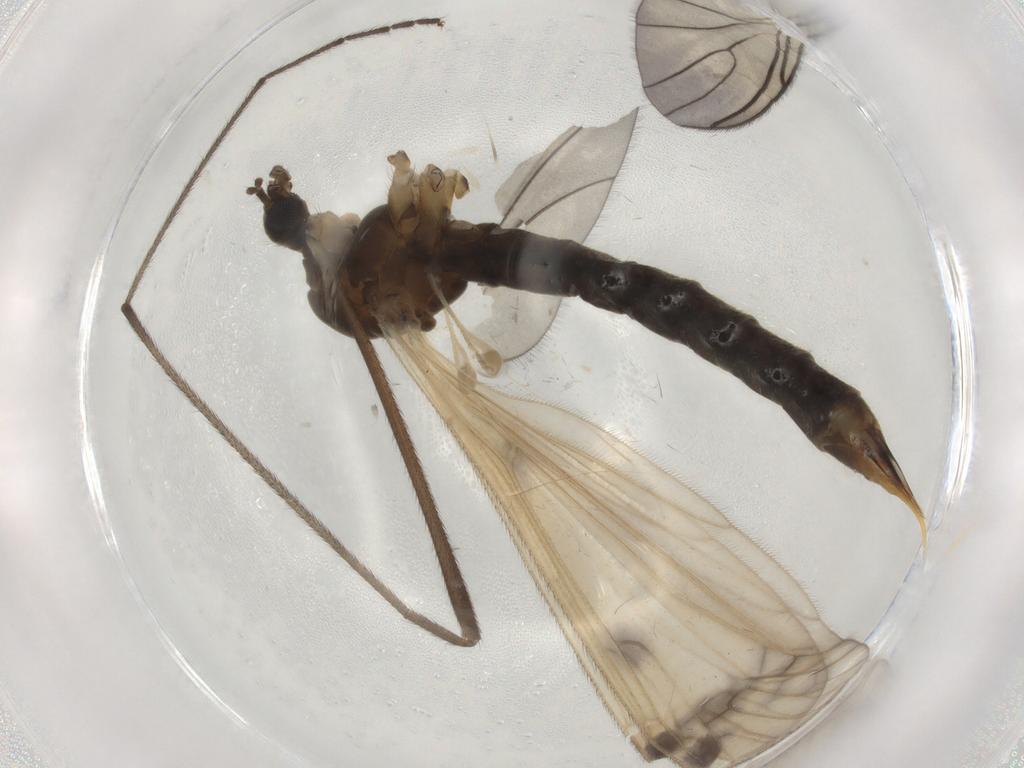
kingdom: Animalia
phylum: Arthropoda
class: Insecta
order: Diptera
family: Limoniidae
